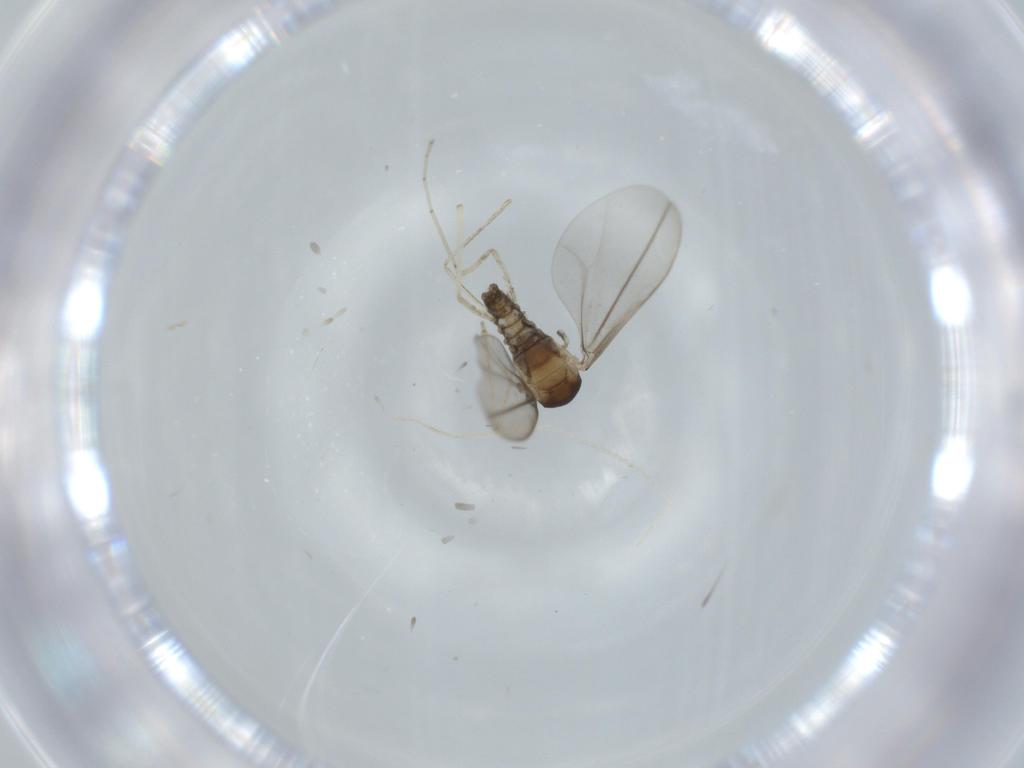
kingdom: Animalia
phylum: Arthropoda
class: Insecta
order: Diptera
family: Cecidomyiidae
